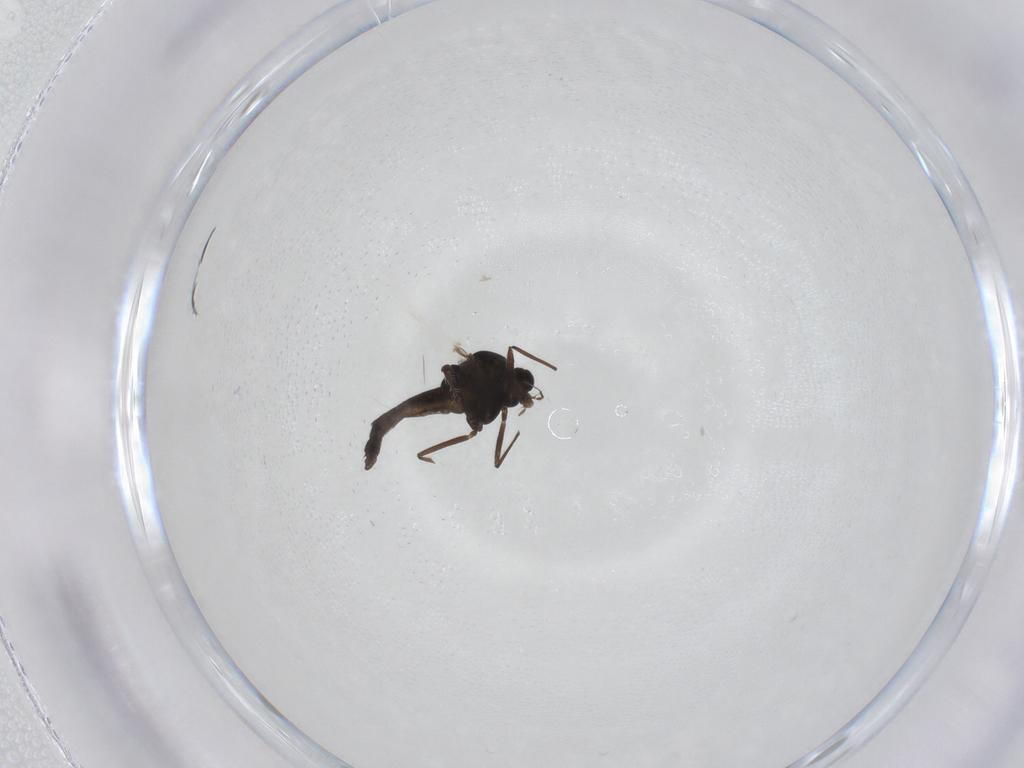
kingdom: Animalia
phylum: Arthropoda
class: Insecta
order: Diptera
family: Chironomidae
